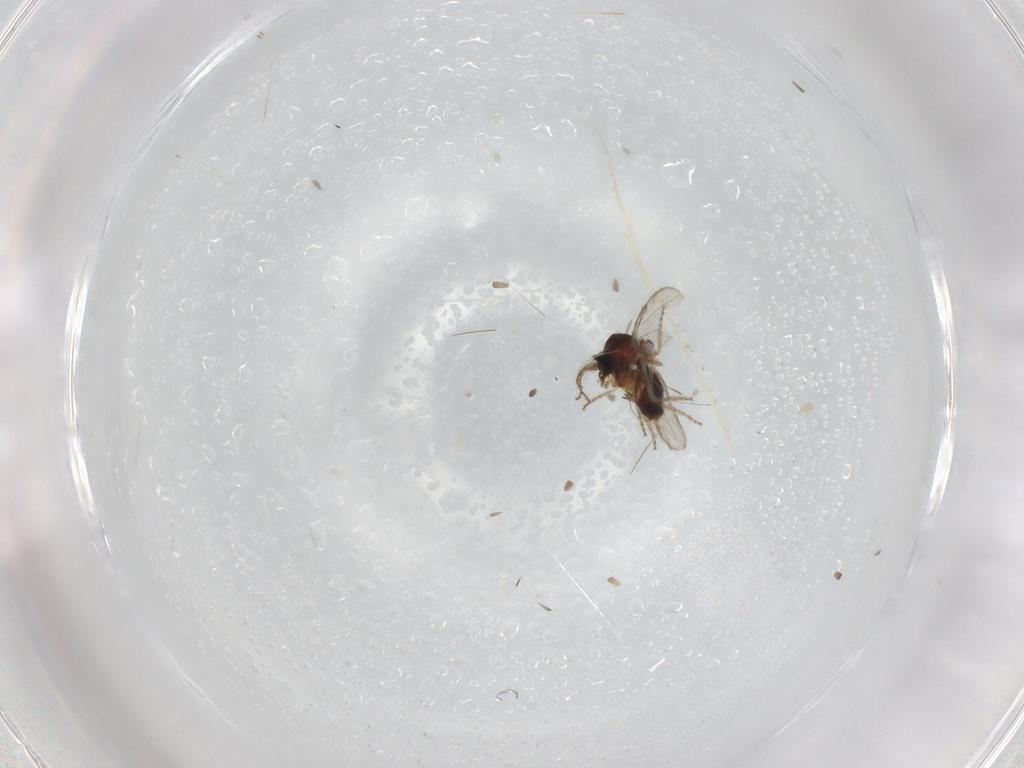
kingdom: Animalia
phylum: Arthropoda
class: Insecta
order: Diptera
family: Ceratopogonidae
